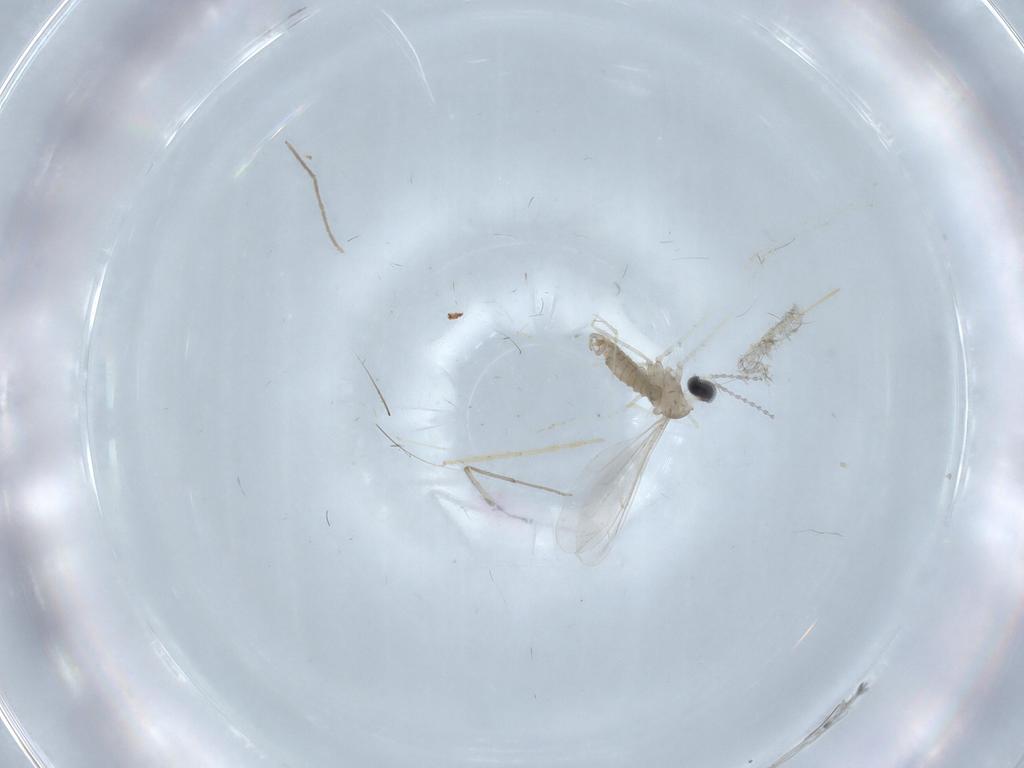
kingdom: Animalia
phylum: Arthropoda
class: Insecta
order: Diptera
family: Cecidomyiidae
